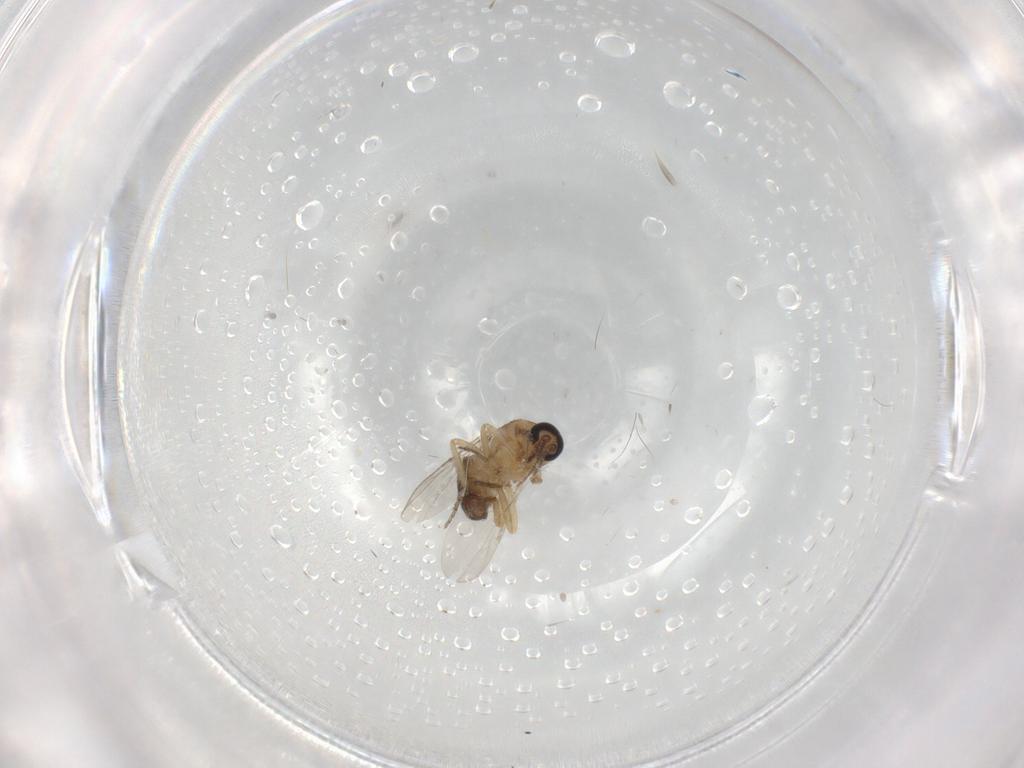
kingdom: Animalia
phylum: Arthropoda
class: Insecta
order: Diptera
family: Ceratopogonidae
